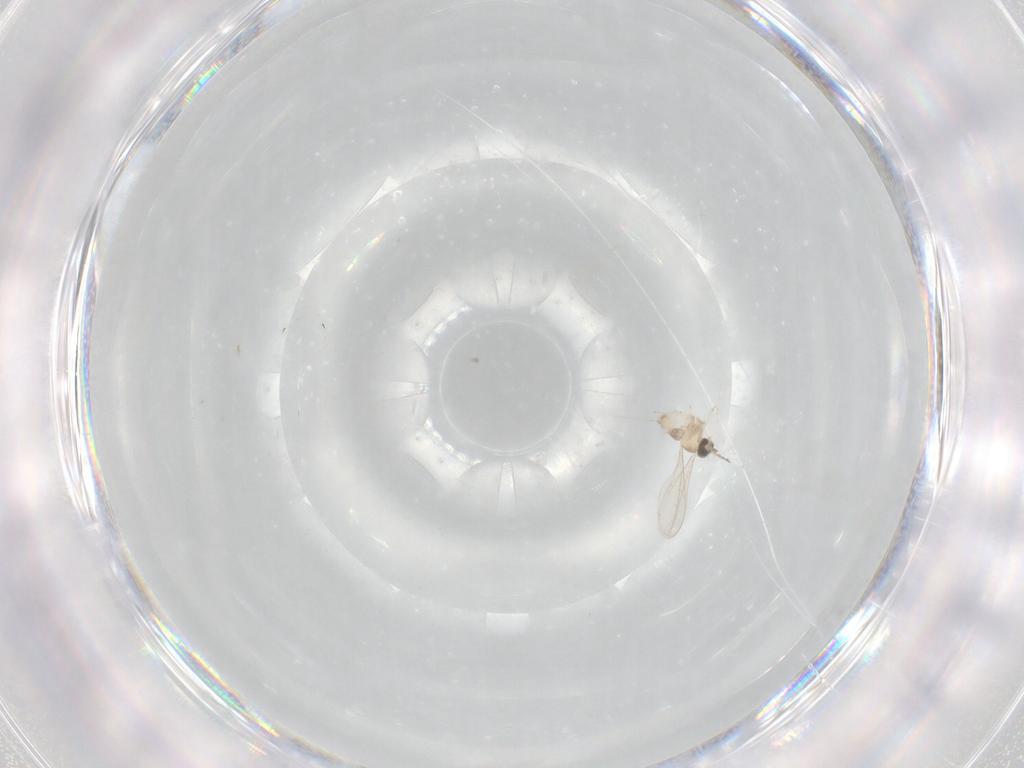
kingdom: Animalia
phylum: Arthropoda
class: Insecta
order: Diptera
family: Cecidomyiidae
